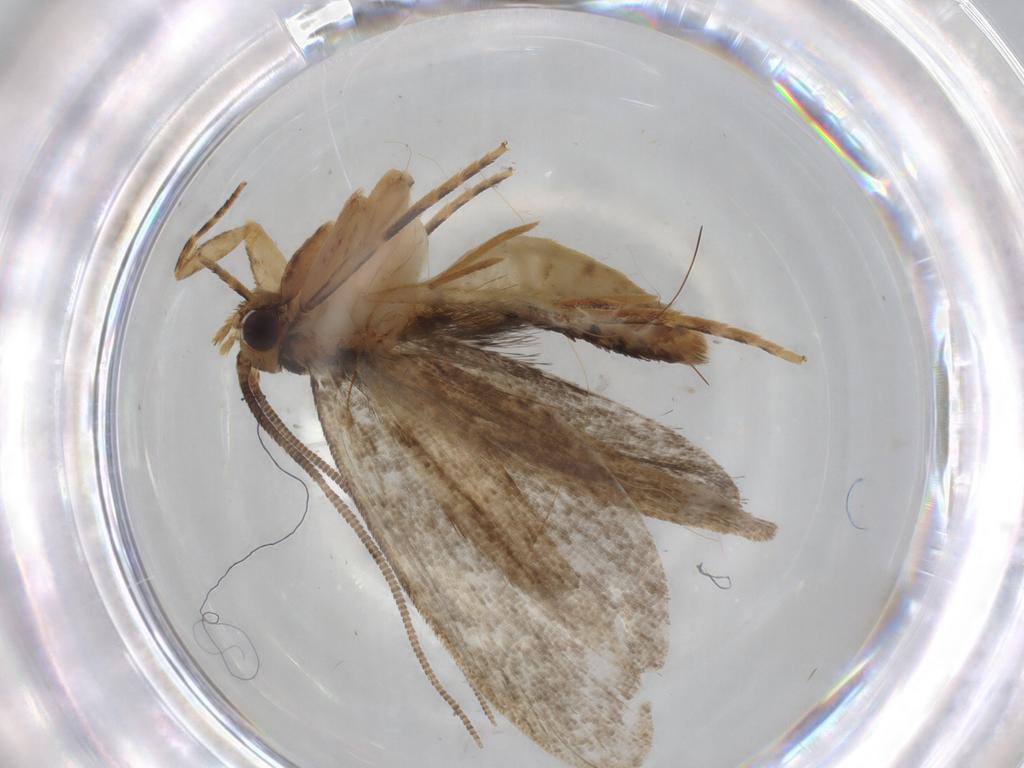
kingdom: Animalia
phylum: Arthropoda
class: Insecta
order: Lepidoptera
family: Tineidae
